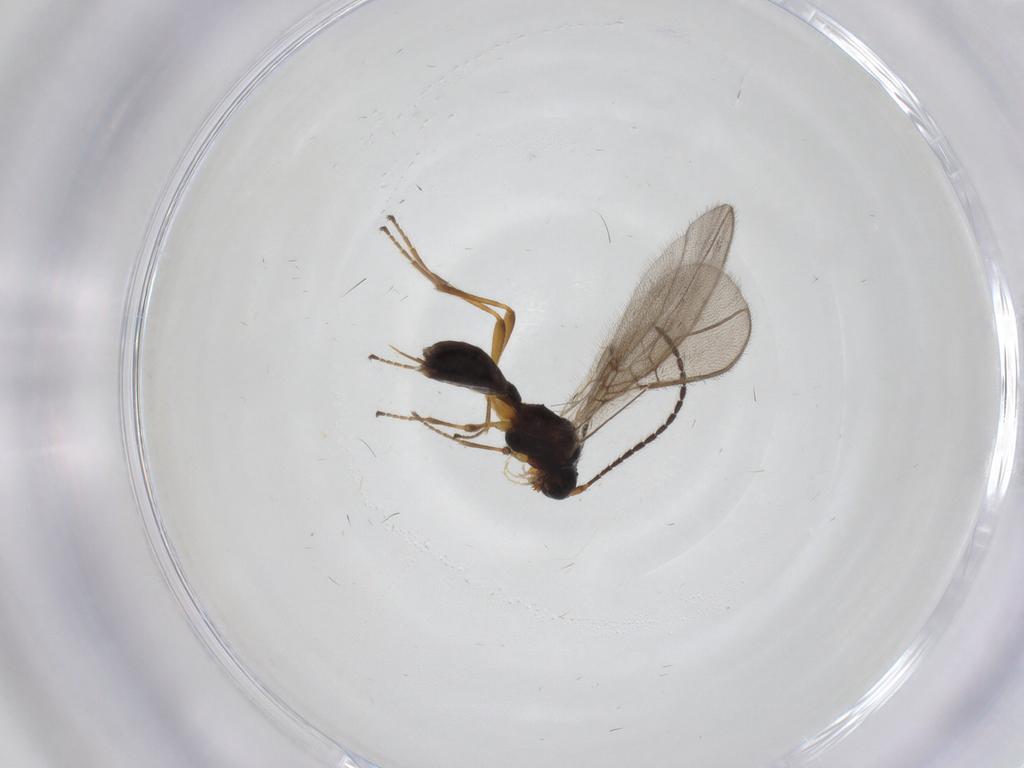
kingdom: Animalia
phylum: Arthropoda
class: Insecta
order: Hymenoptera
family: Braconidae
